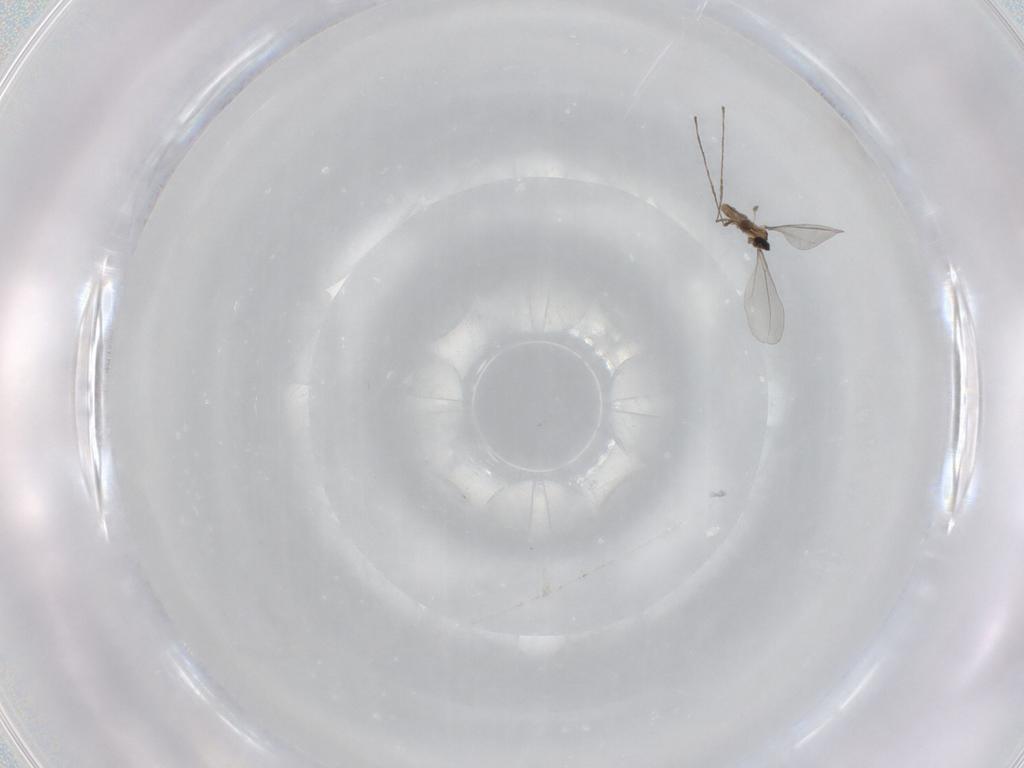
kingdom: Animalia
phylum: Arthropoda
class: Insecta
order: Diptera
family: Cecidomyiidae
